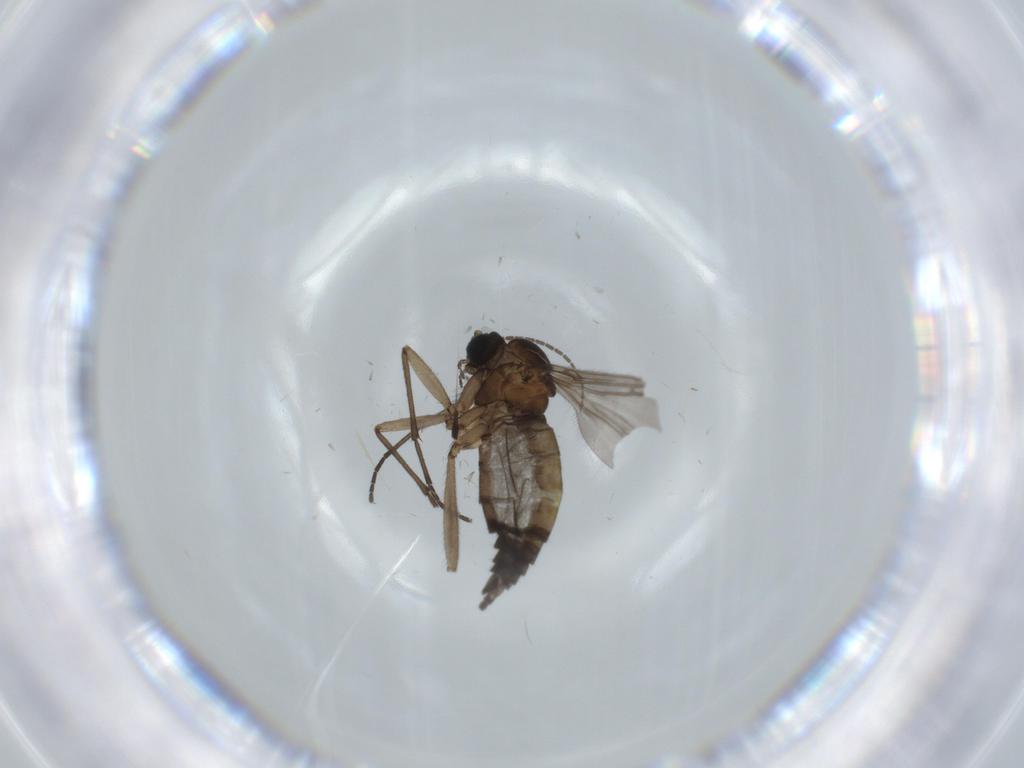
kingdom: Animalia
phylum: Arthropoda
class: Insecta
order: Diptera
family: Sciaridae
